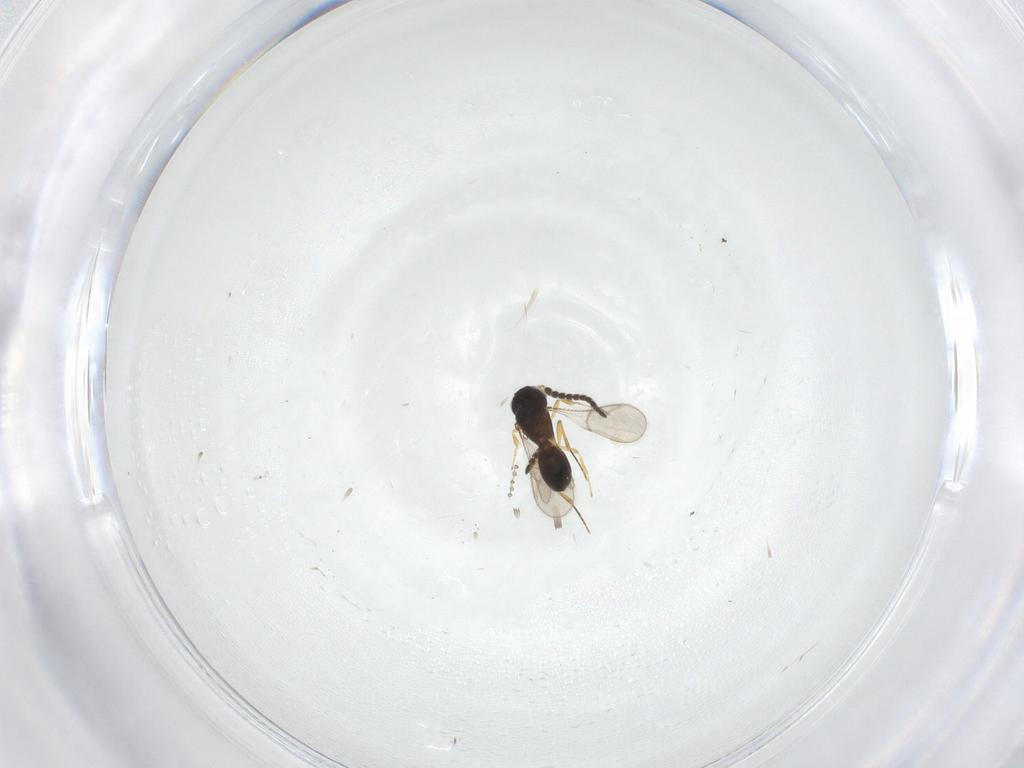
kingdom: Animalia
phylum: Arthropoda
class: Insecta
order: Hymenoptera
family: Scelionidae
